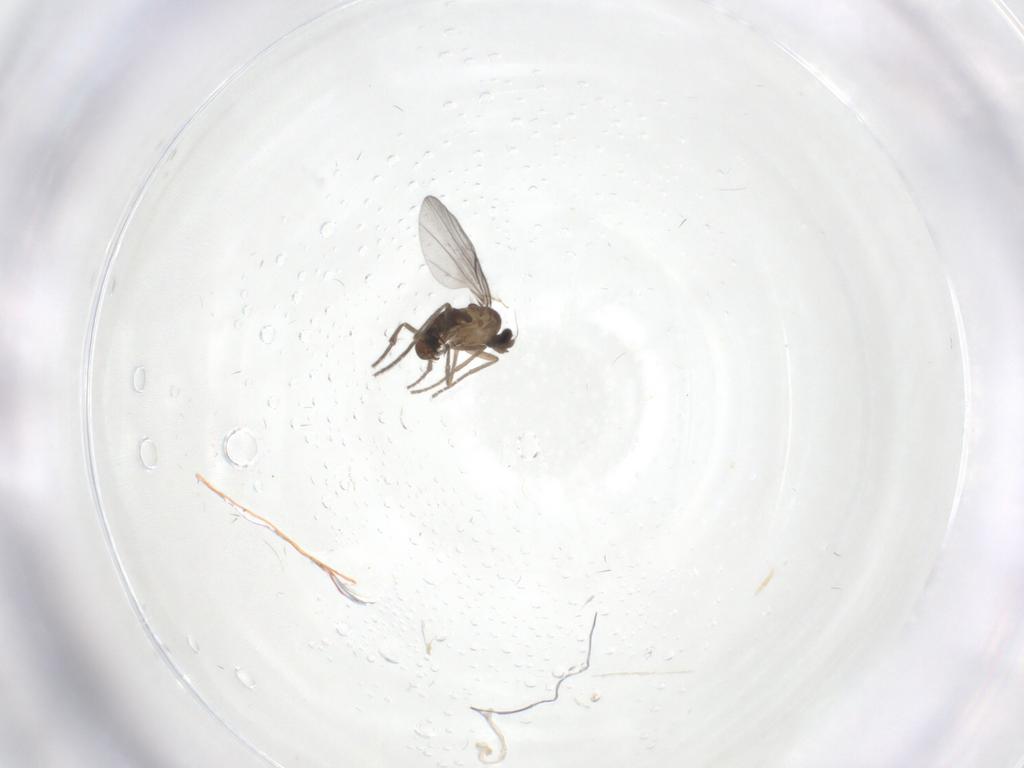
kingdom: Animalia
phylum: Arthropoda
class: Insecta
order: Diptera
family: Phoridae
